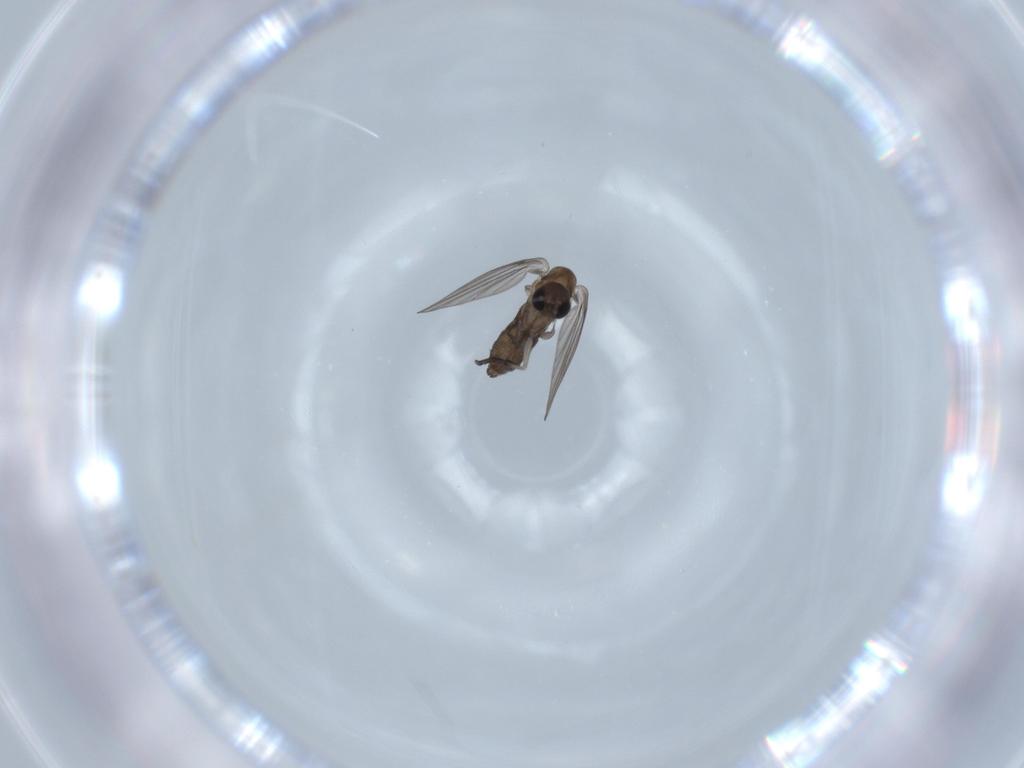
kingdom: Animalia
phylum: Arthropoda
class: Insecta
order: Diptera
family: Psychodidae
